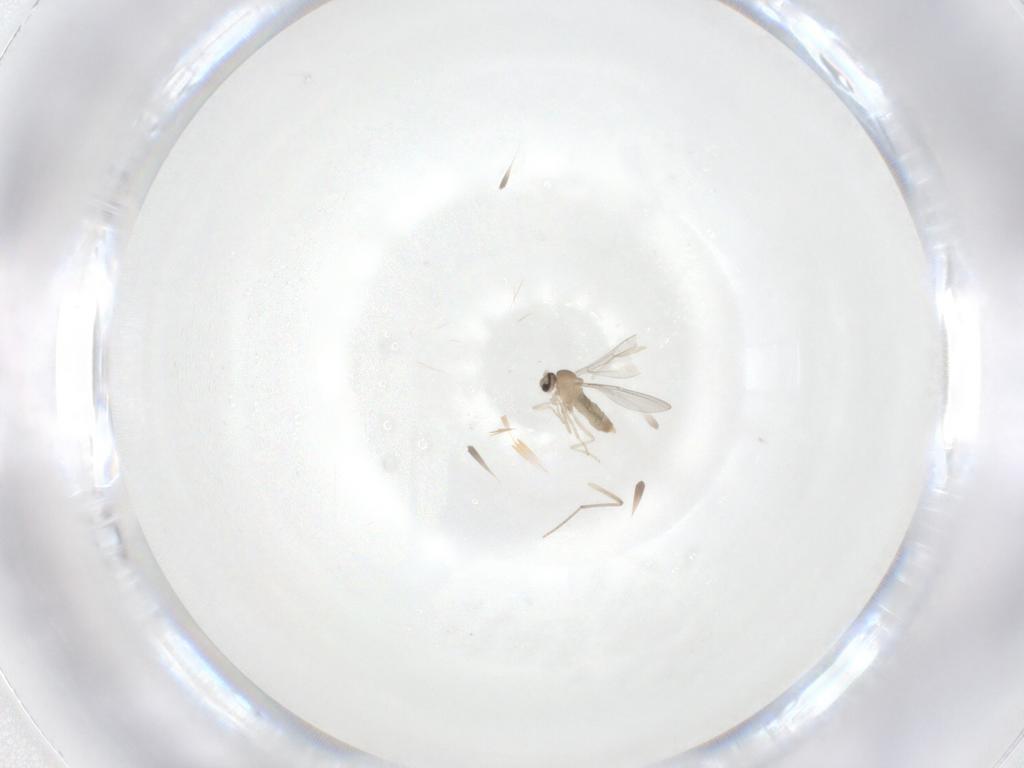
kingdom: Animalia
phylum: Arthropoda
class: Insecta
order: Diptera
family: Cecidomyiidae
